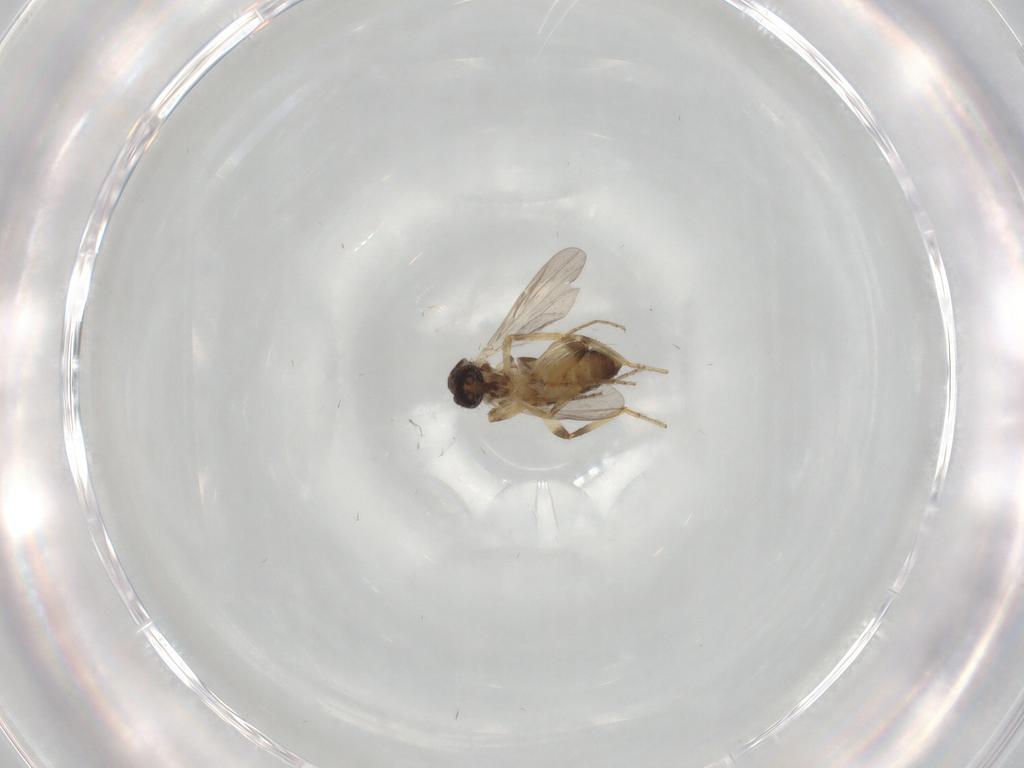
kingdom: Animalia
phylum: Arthropoda
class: Insecta
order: Diptera
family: Ceratopogonidae
